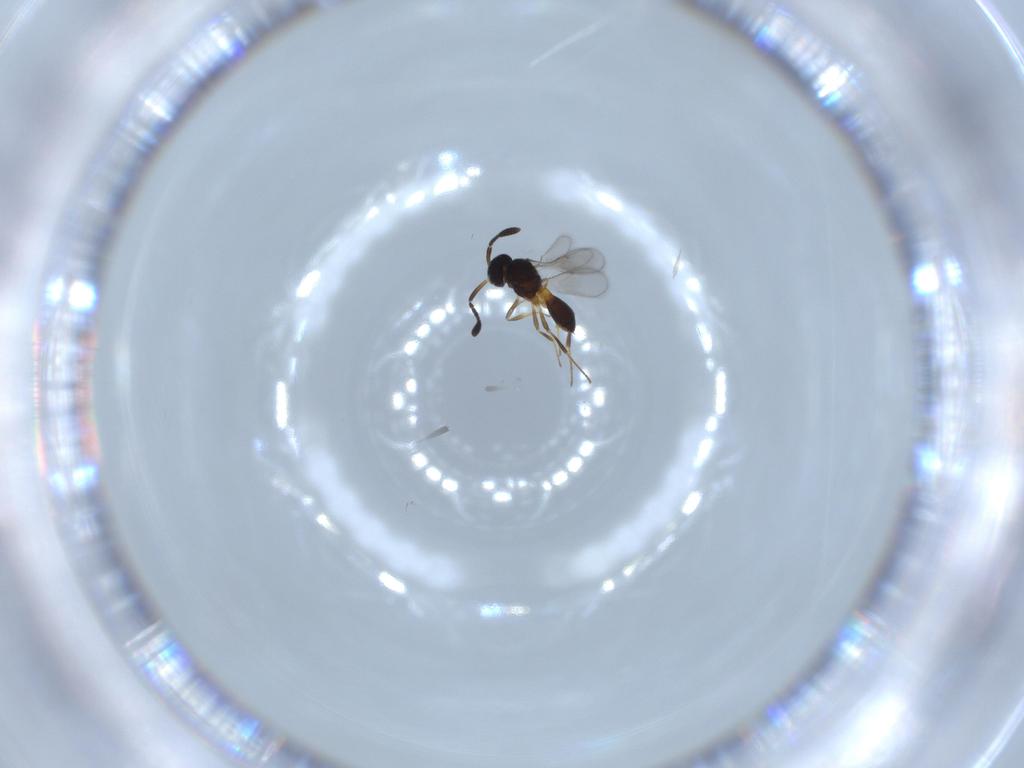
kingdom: Animalia
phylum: Arthropoda
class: Insecta
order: Hymenoptera
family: Scelionidae
